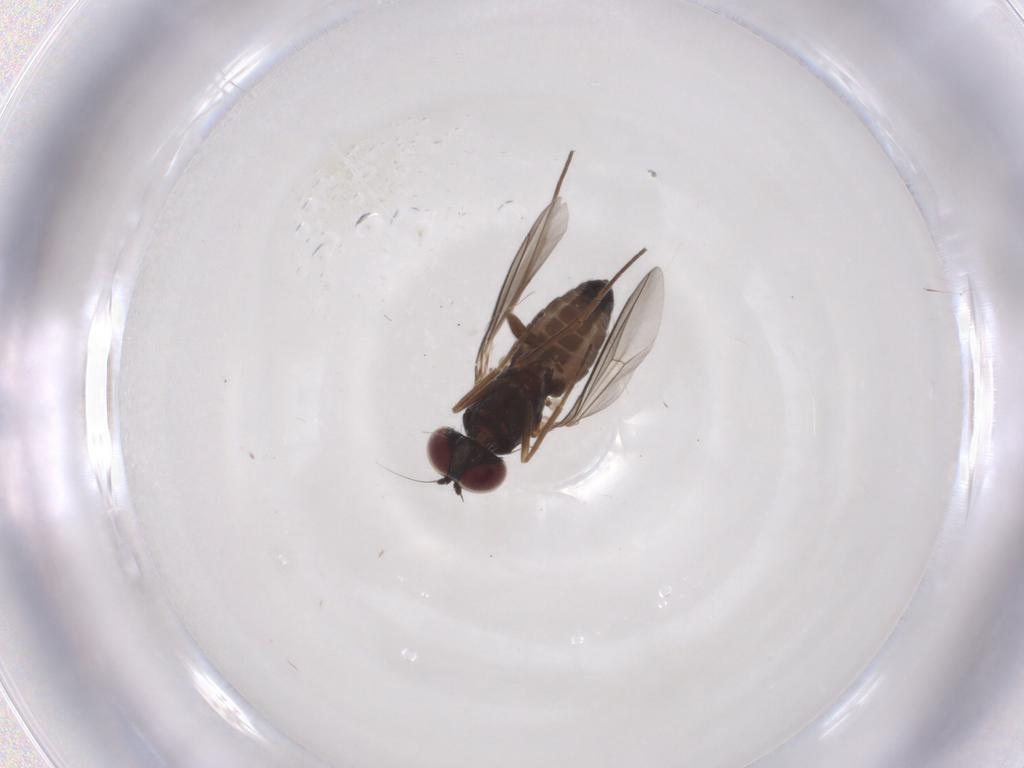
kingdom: Animalia
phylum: Arthropoda
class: Insecta
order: Diptera
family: Dolichopodidae
